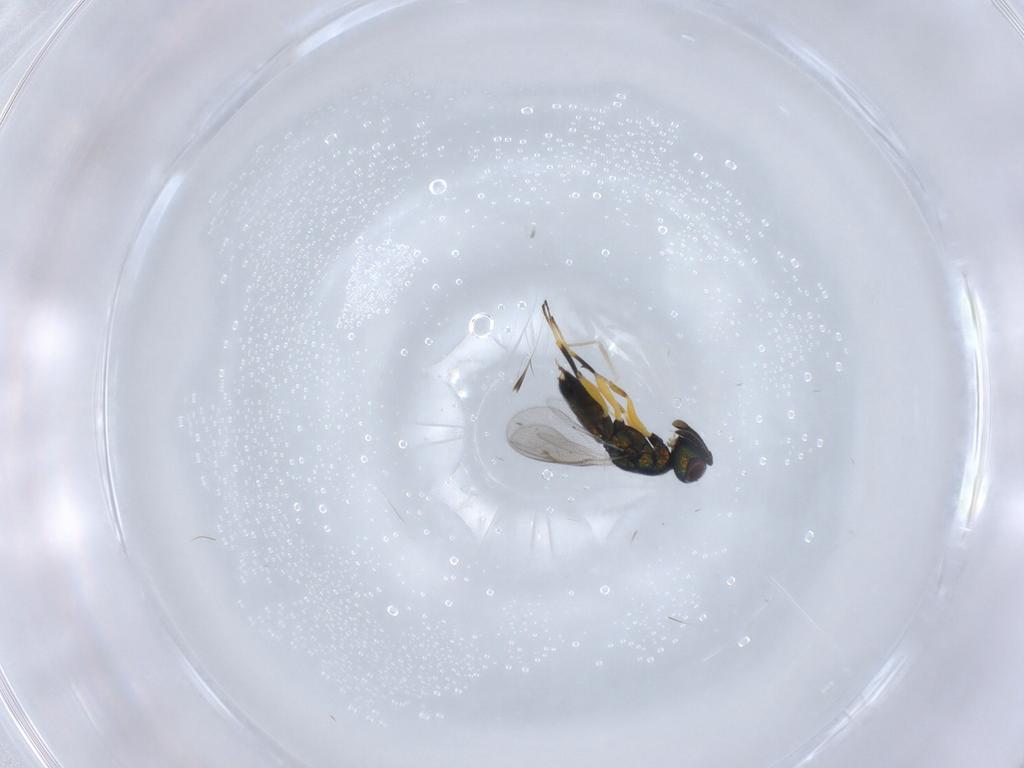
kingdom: Animalia
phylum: Arthropoda
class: Insecta
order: Hymenoptera
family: Eupelmidae
